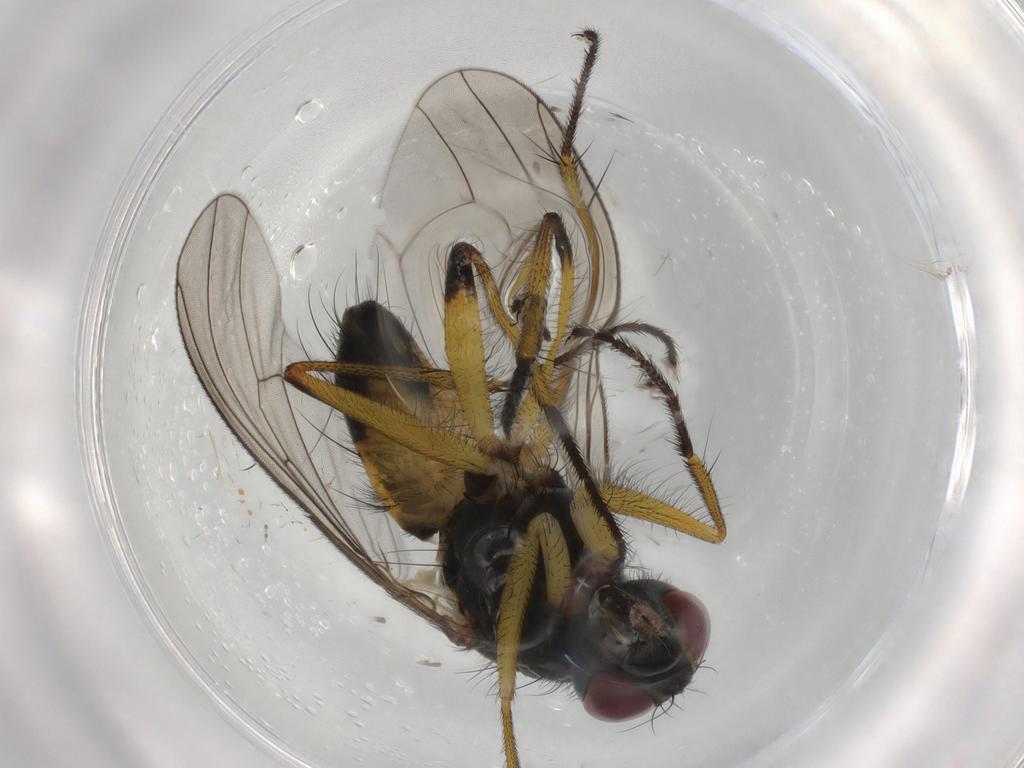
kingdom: Animalia
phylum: Arthropoda
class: Insecta
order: Diptera
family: Muscidae
